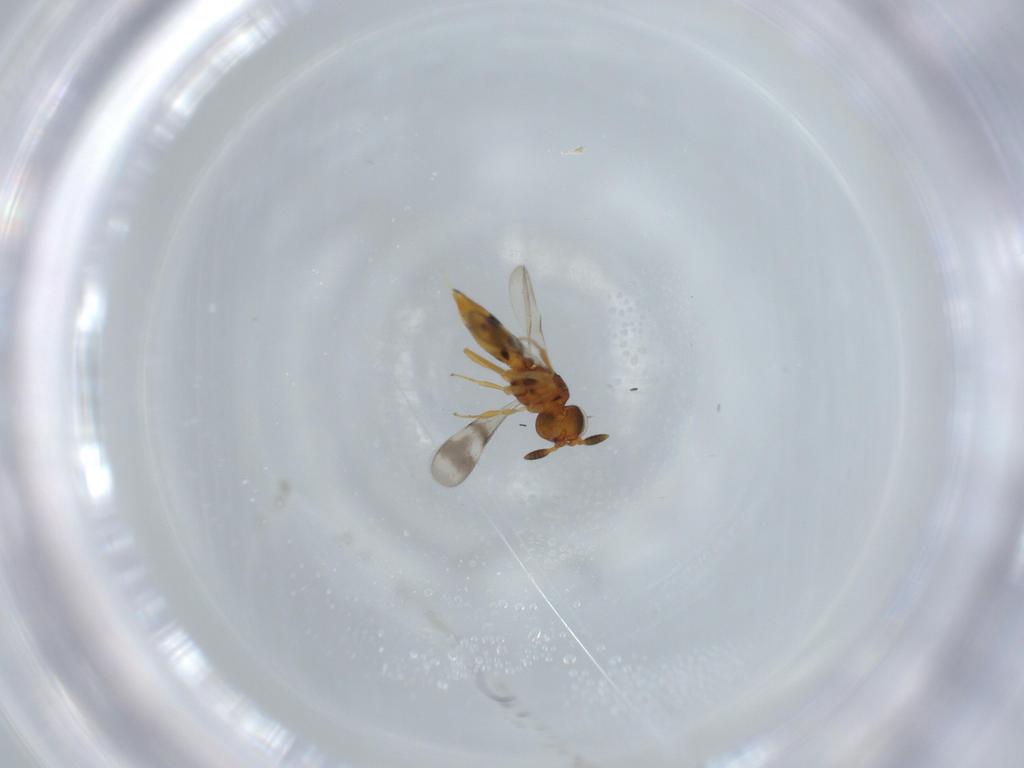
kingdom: Animalia
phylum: Arthropoda
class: Insecta
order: Hymenoptera
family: Scelionidae
